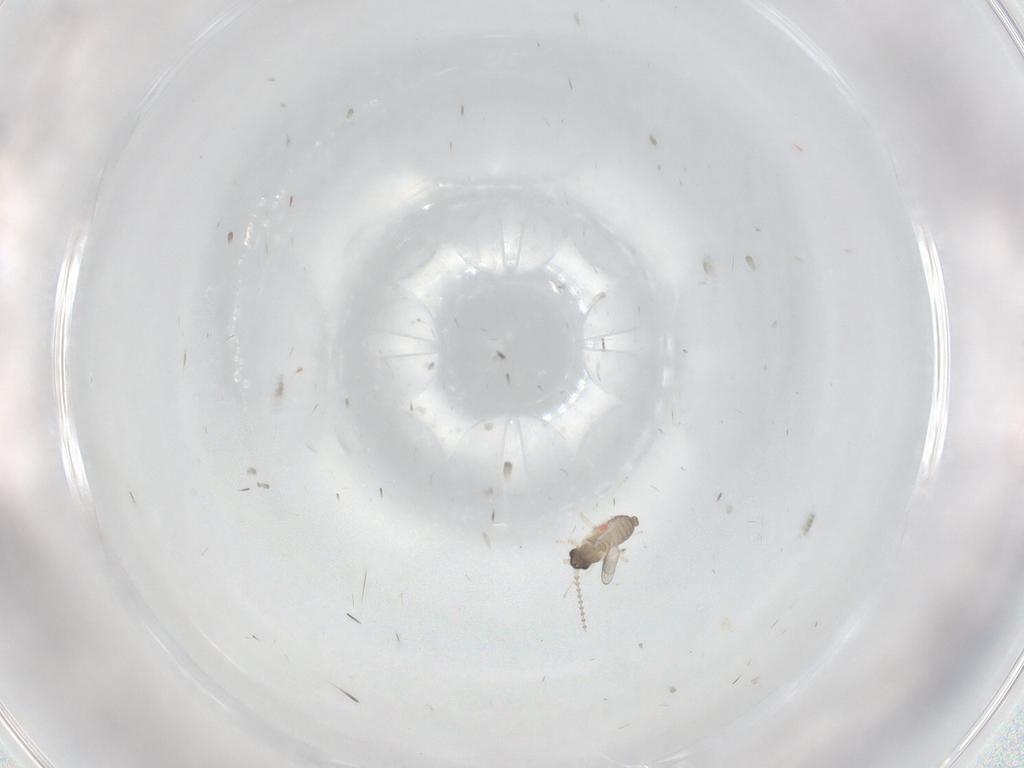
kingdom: Animalia
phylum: Arthropoda
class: Insecta
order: Diptera
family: Cecidomyiidae
